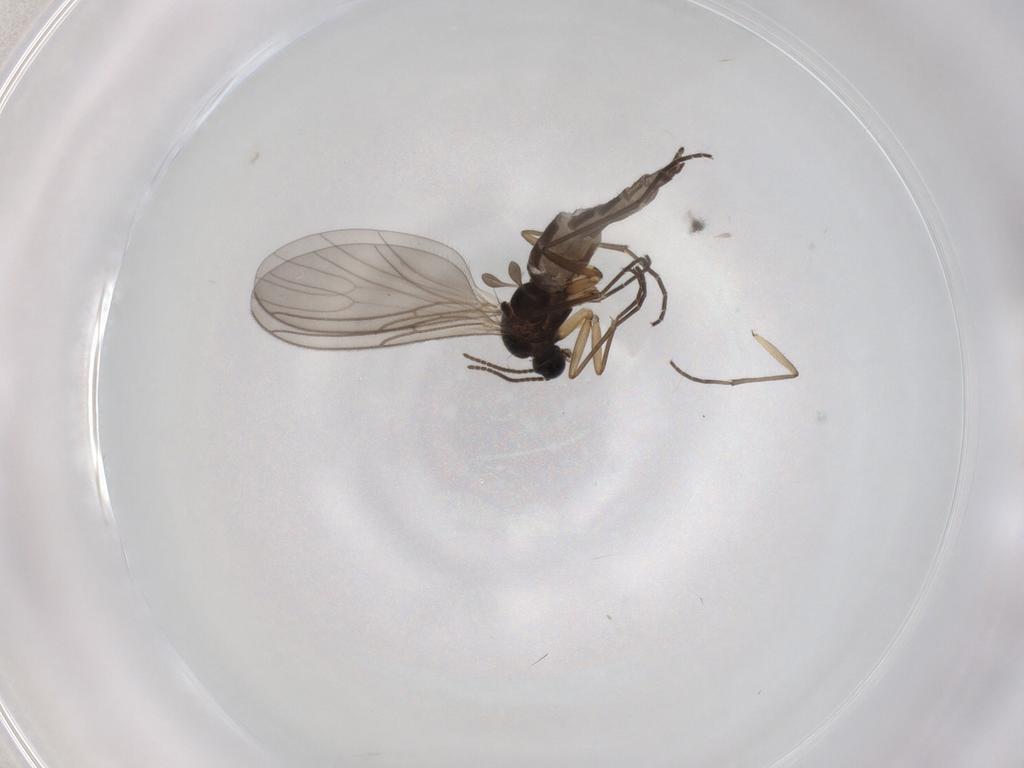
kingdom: Animalia
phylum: Arthropoda
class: Insecta
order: Diptera
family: Sciaridae
